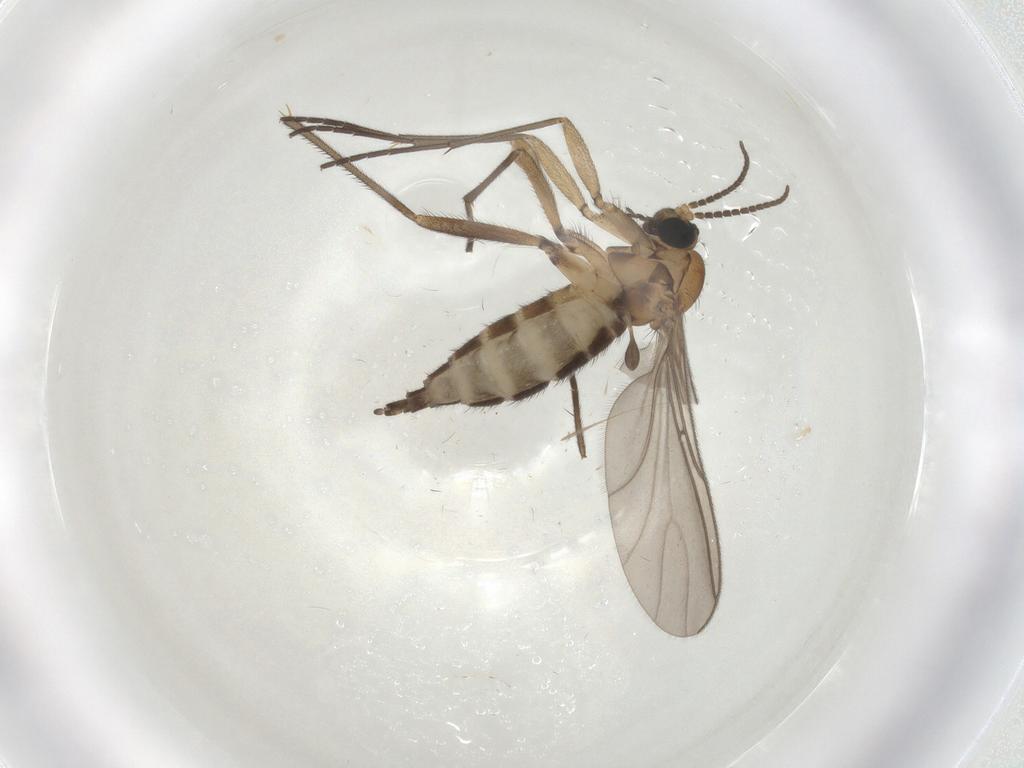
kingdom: Animalia
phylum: Arthropoda
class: Insecta
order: Diptera
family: Sciaridae
